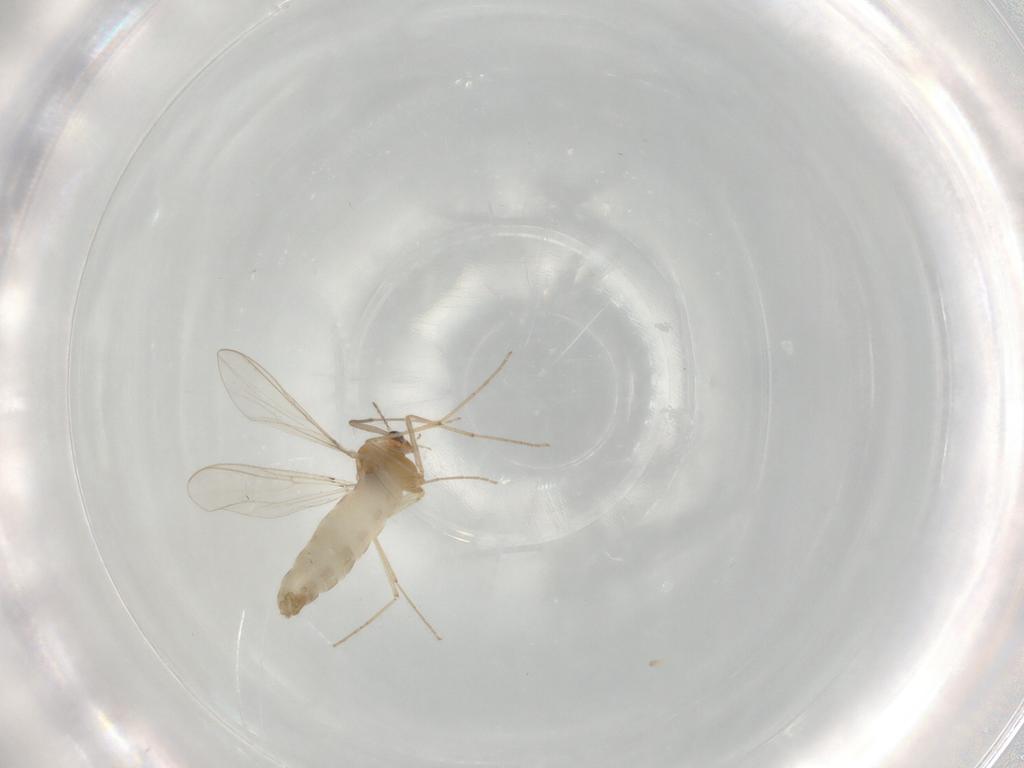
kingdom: Animalia
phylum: Arthropoda
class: Insecta
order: Diptera
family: Chironomidae
